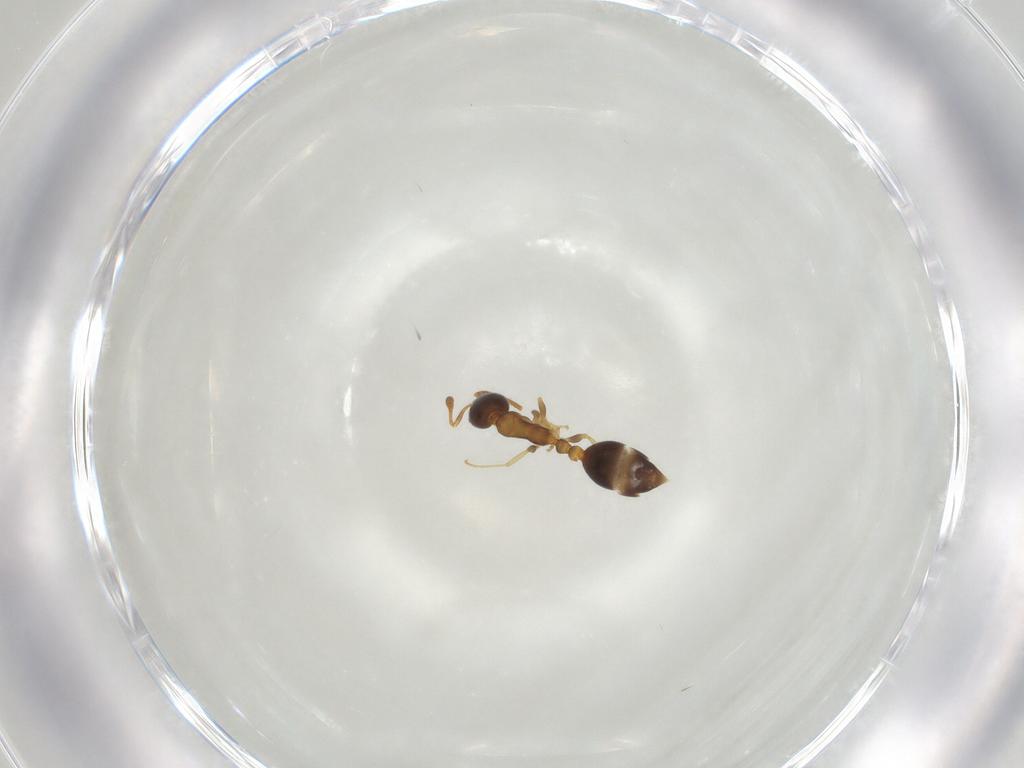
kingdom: Animalia
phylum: Arthropoda
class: Insecta
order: Hymenoptera
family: Formicidae
